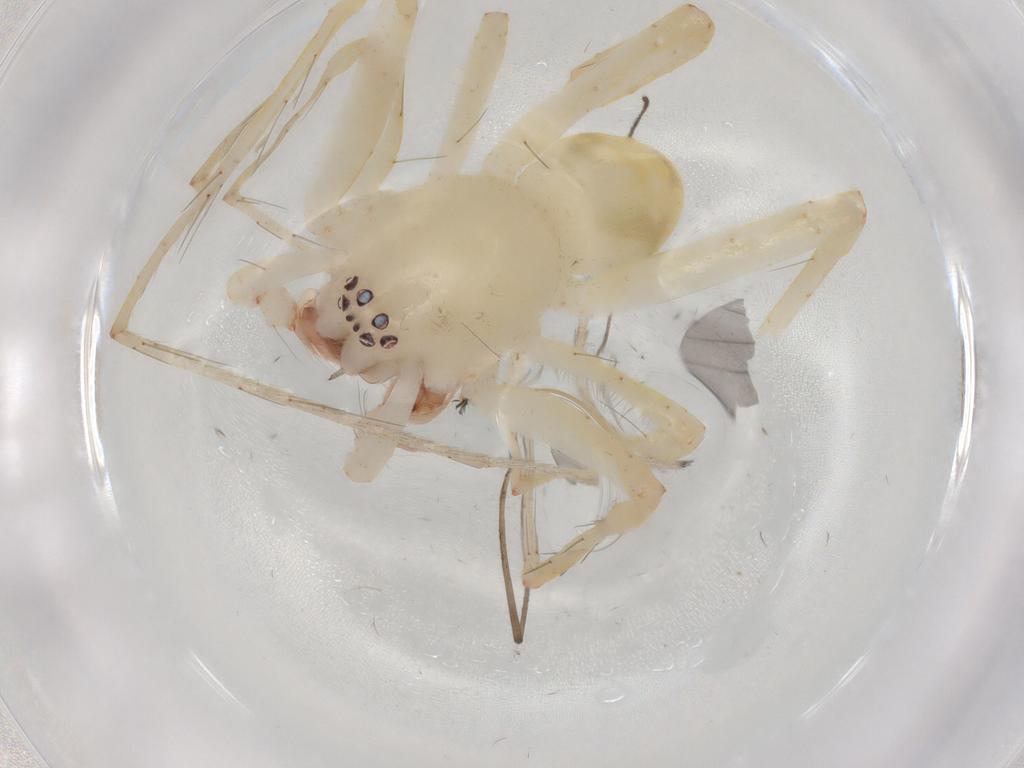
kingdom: Animalia
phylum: Arthropoda
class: Arachnida
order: Araneae
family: Anyphaenidae
